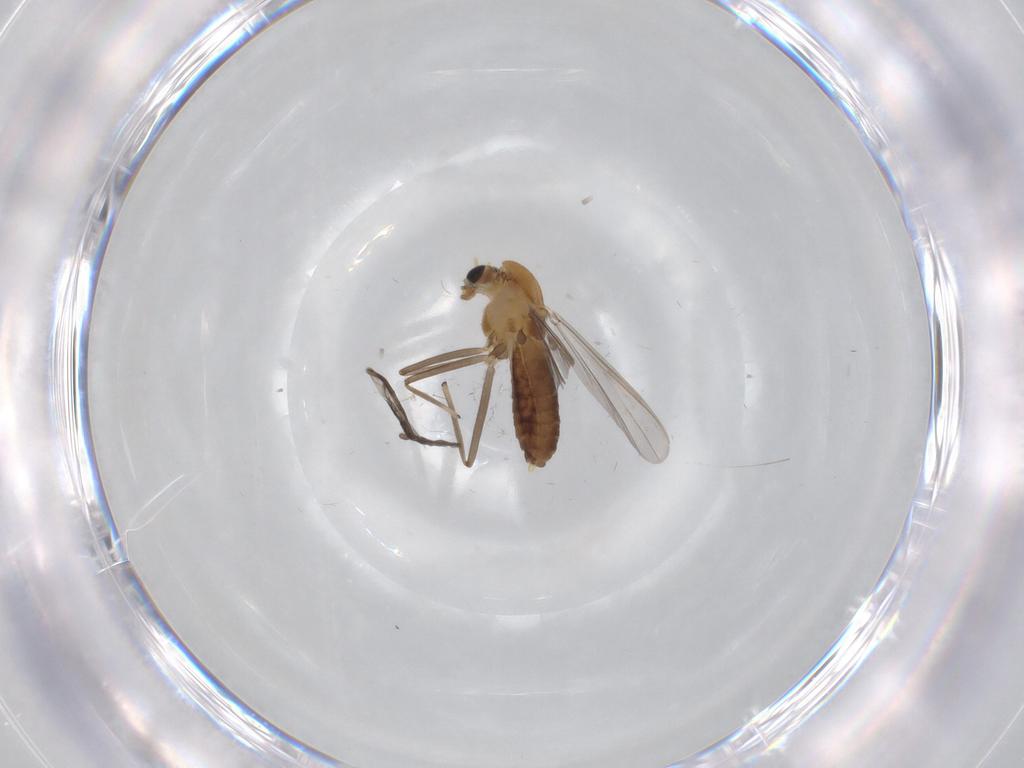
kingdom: Animalia
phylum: Arthropoda
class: Insecta
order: Diptera
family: Chironomidae
